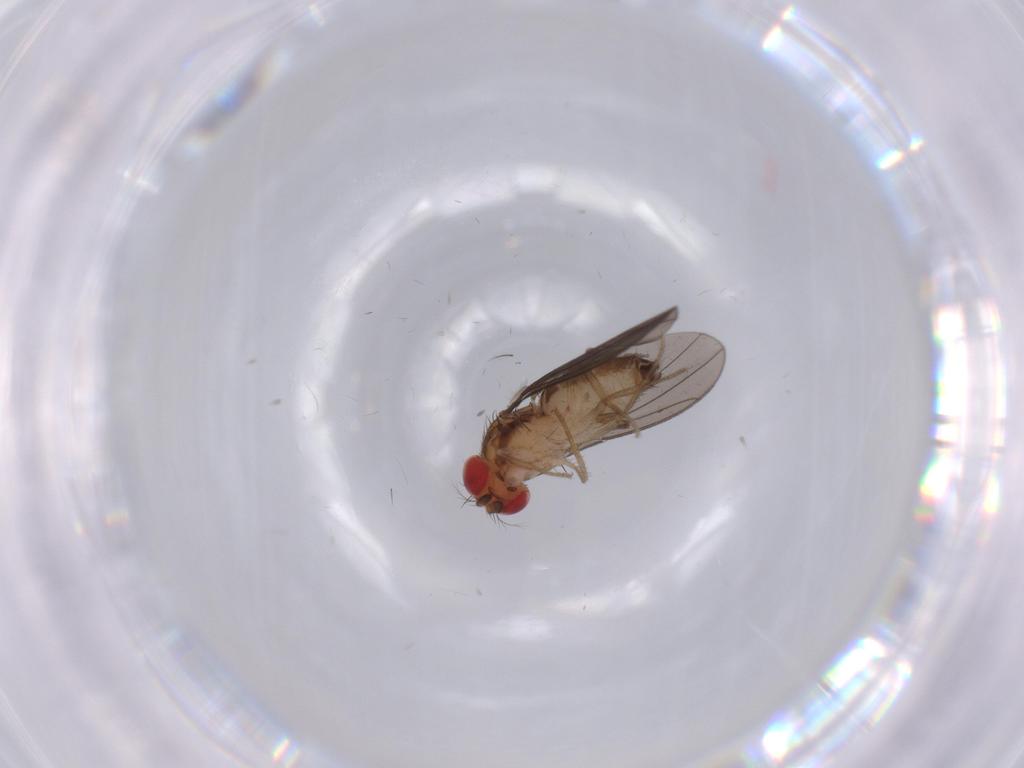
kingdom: Animalia
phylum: Arthropoda
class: Insecta
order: Diptera
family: Drosophilidae
